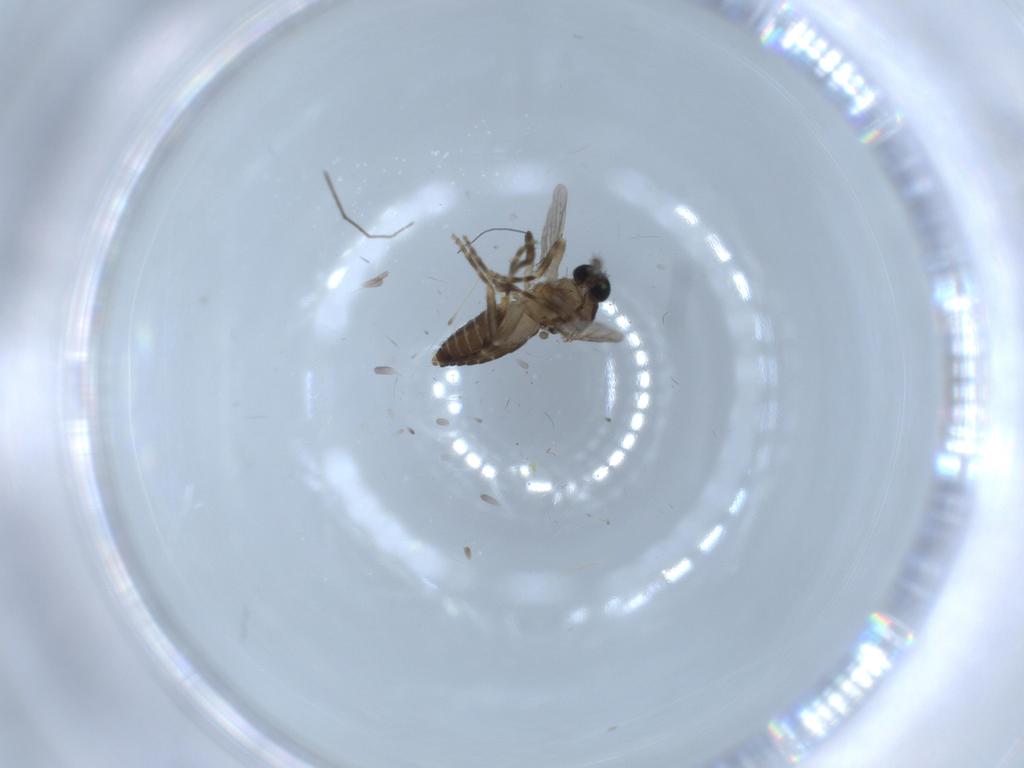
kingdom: Animalia
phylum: Arthropoda
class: Insecta
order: Diptera
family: Ceratopogonidae
